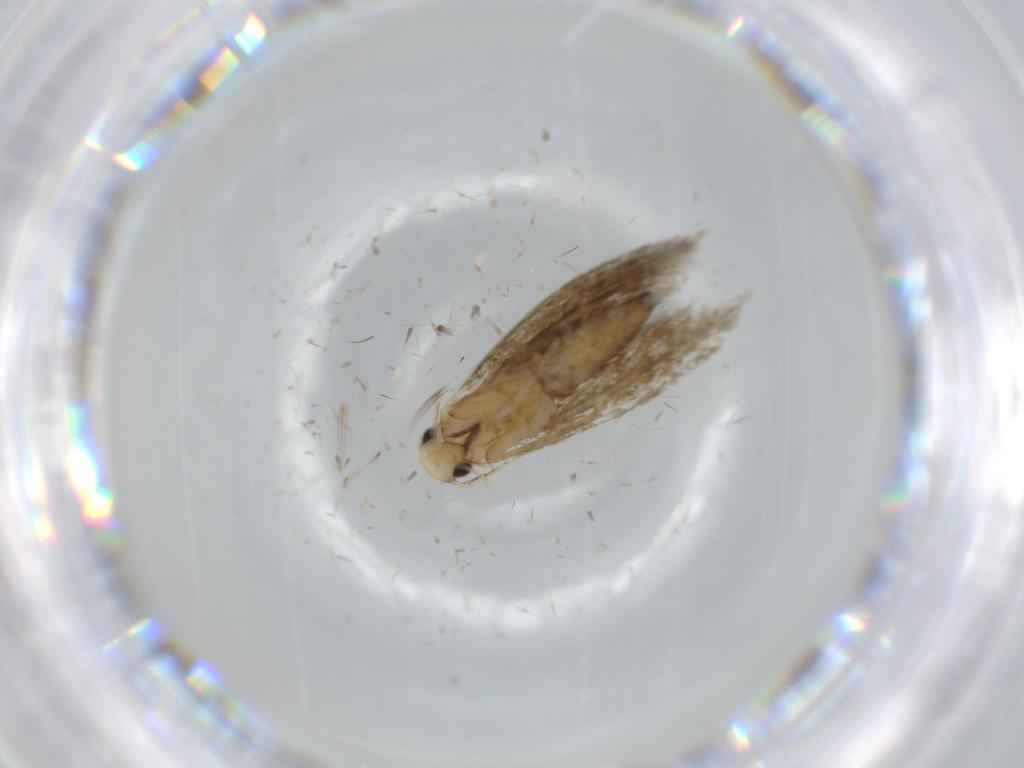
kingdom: Animalia
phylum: Arthropoda
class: Insecta
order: Lepidoptera
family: Tineidae
